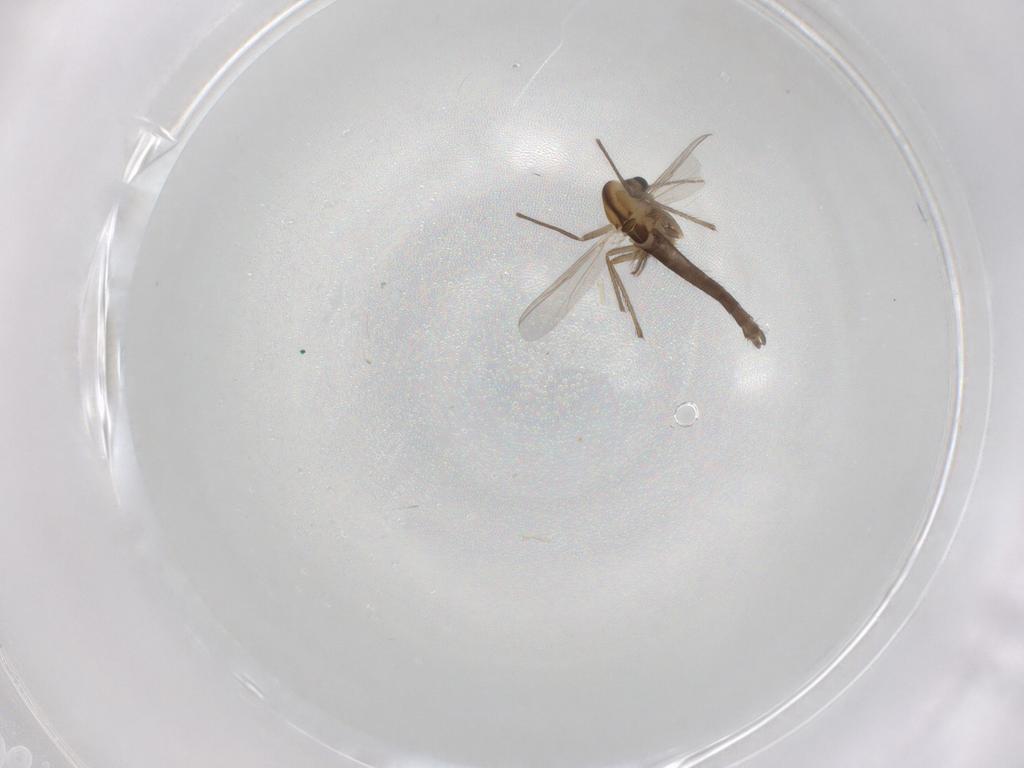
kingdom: Animalia
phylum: Arthropoda
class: Insecta
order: Diptera
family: Chironomidae
